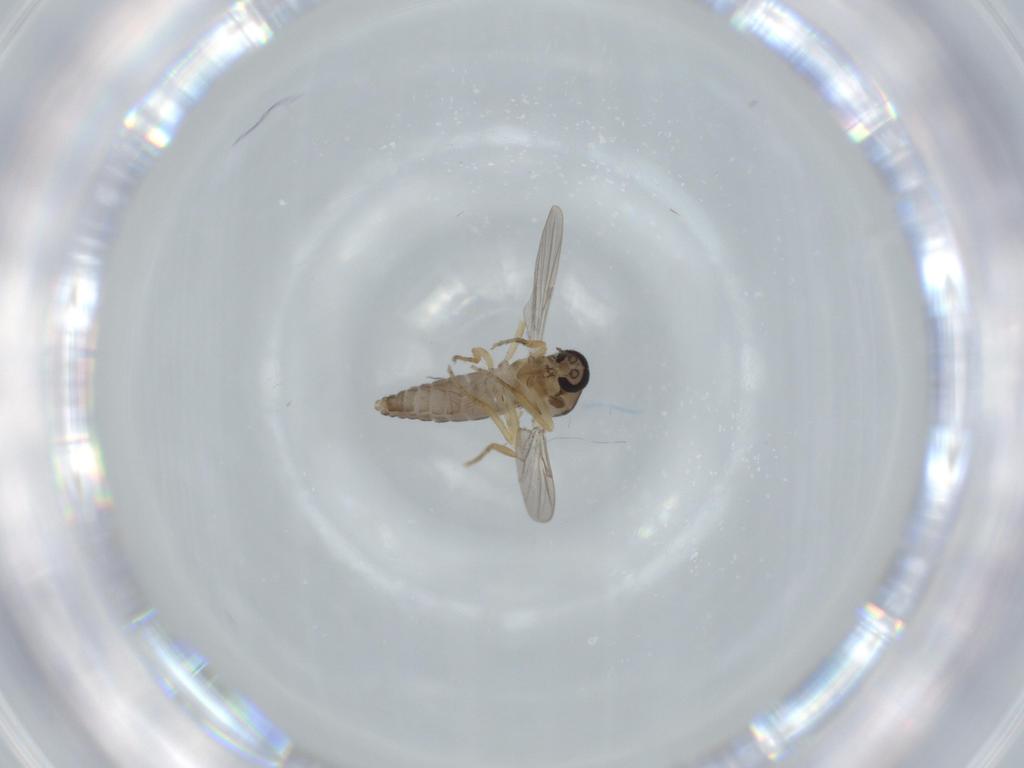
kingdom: Animalia
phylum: Arthropoda
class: Insecta
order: Diptera
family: Ceratopogonidae
